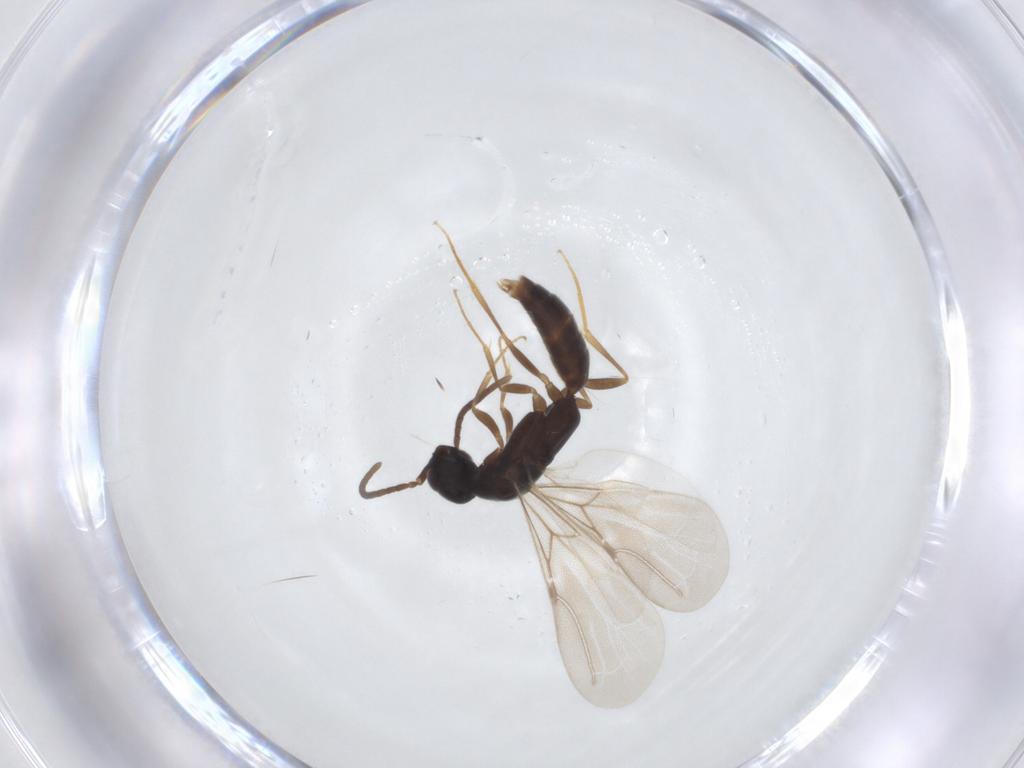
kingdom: Animalia
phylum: Arthropoda
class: Insecta
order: Hymenoptera
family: Bethylidae
